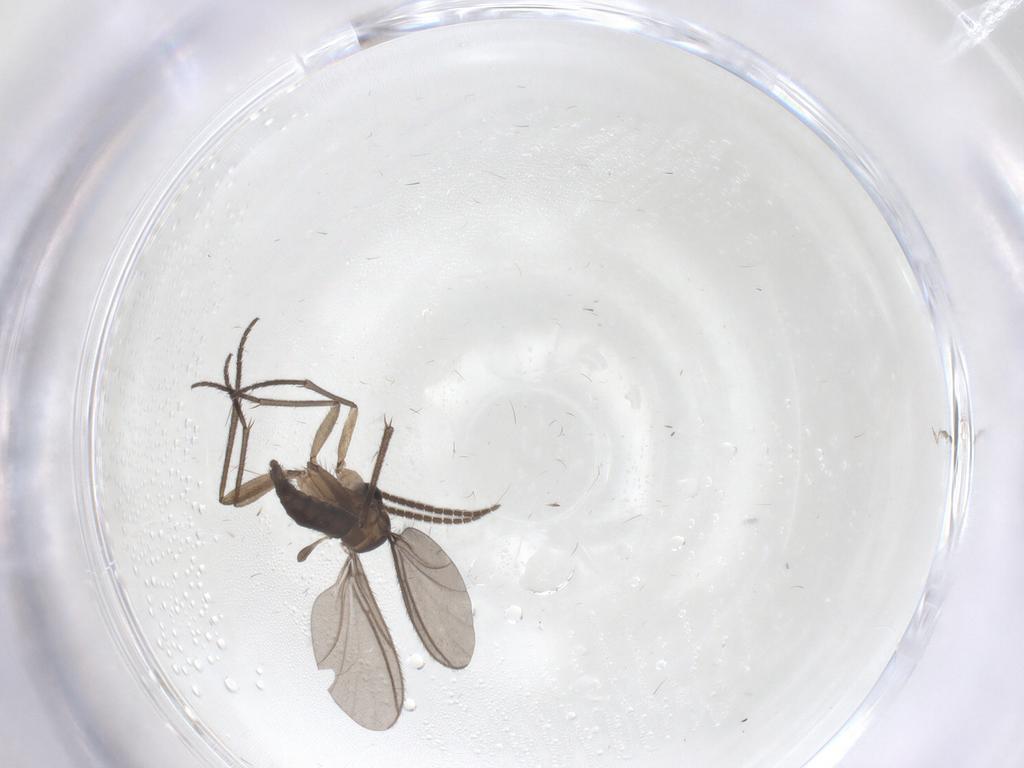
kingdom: Animalia
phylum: Arthropoda
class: Insecta
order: Diptera
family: Sciaridae
